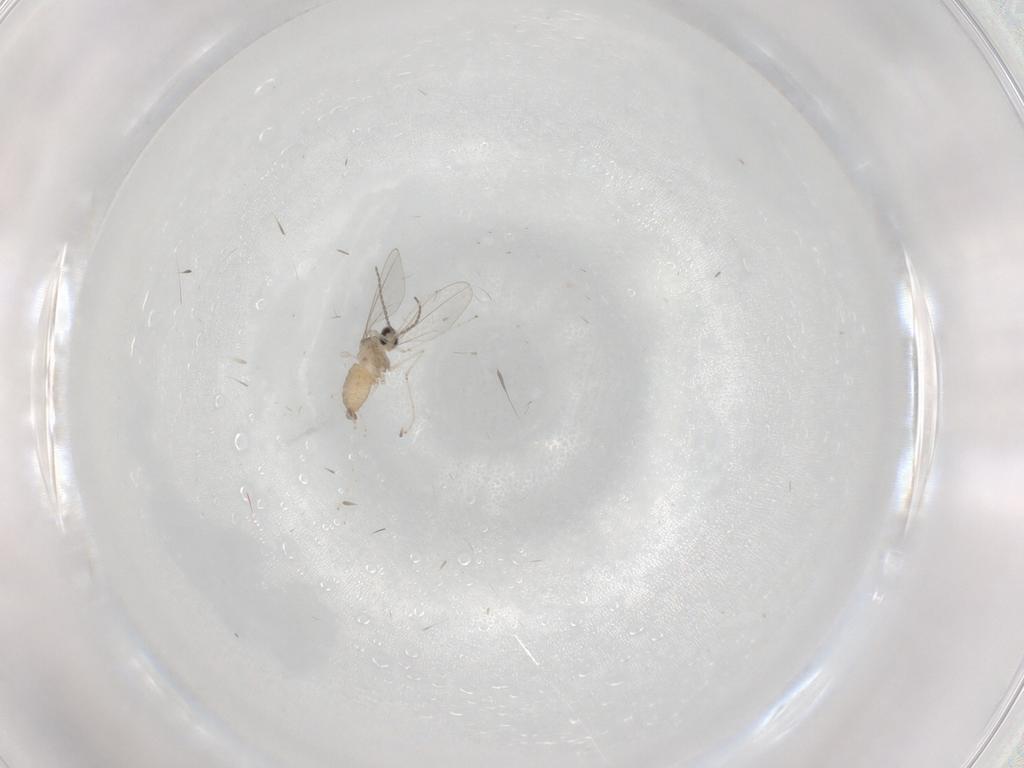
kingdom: Animalia
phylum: Arthropoda
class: Insecta
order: Diptera
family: Cecidomyiidae
